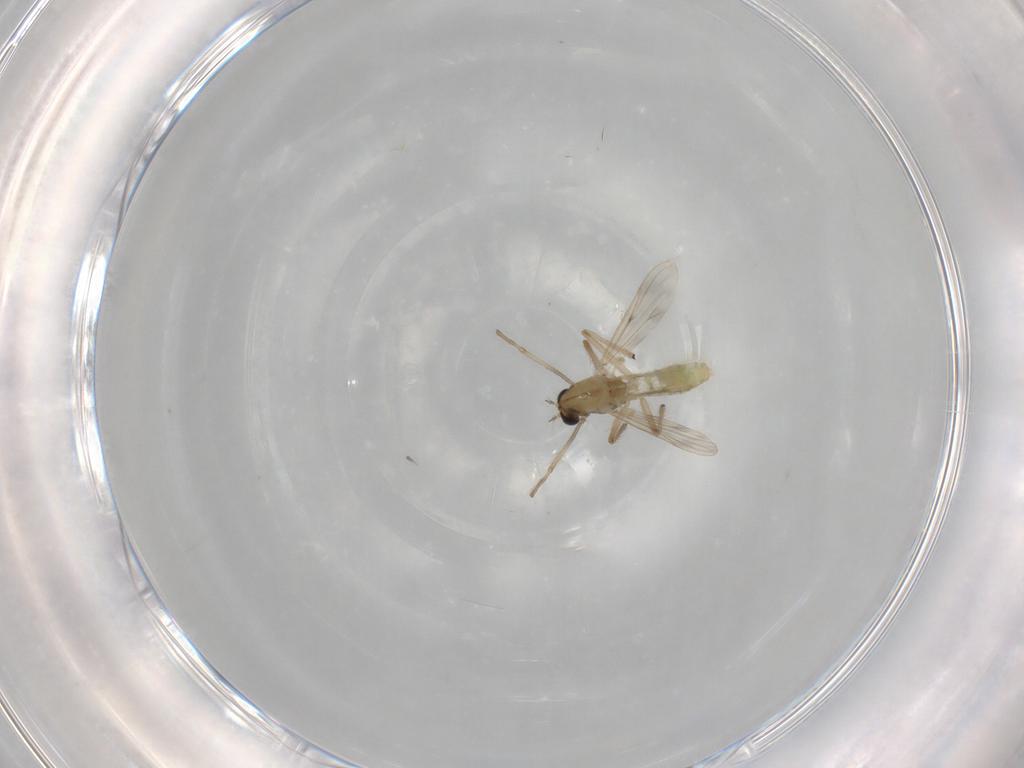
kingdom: Animalia
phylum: Arthropoda
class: Insecta
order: Diptera
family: Chironomidae
